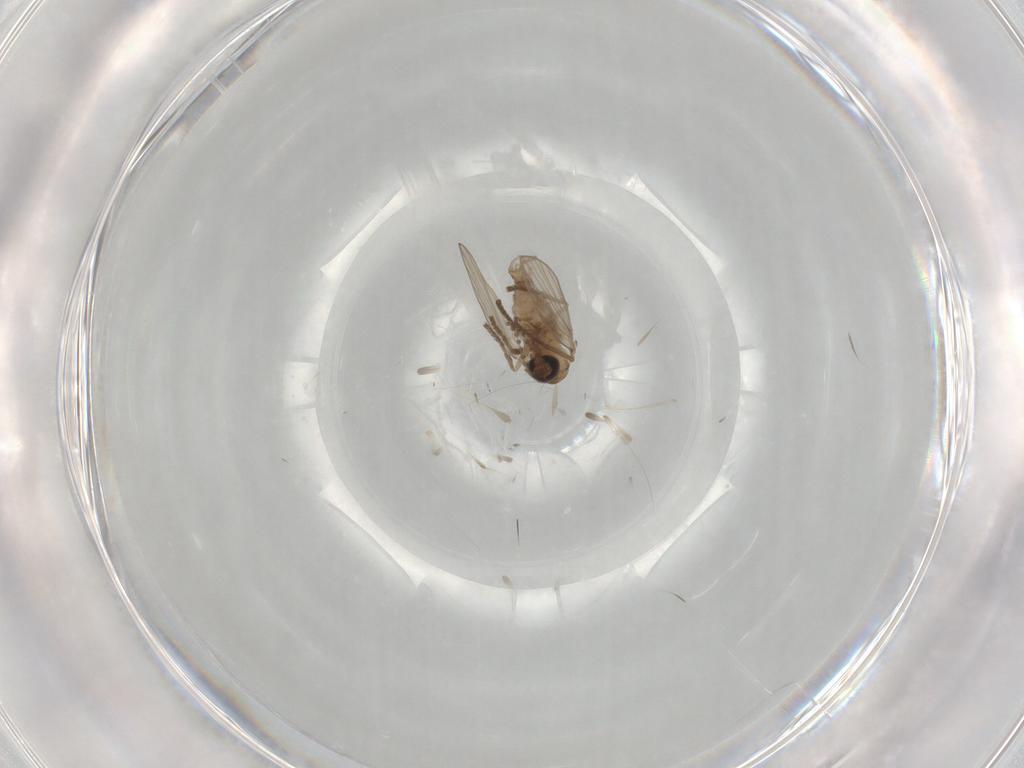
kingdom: Animalia
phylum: Arthropoda
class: Insecta
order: Diptera
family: Psychodidae
